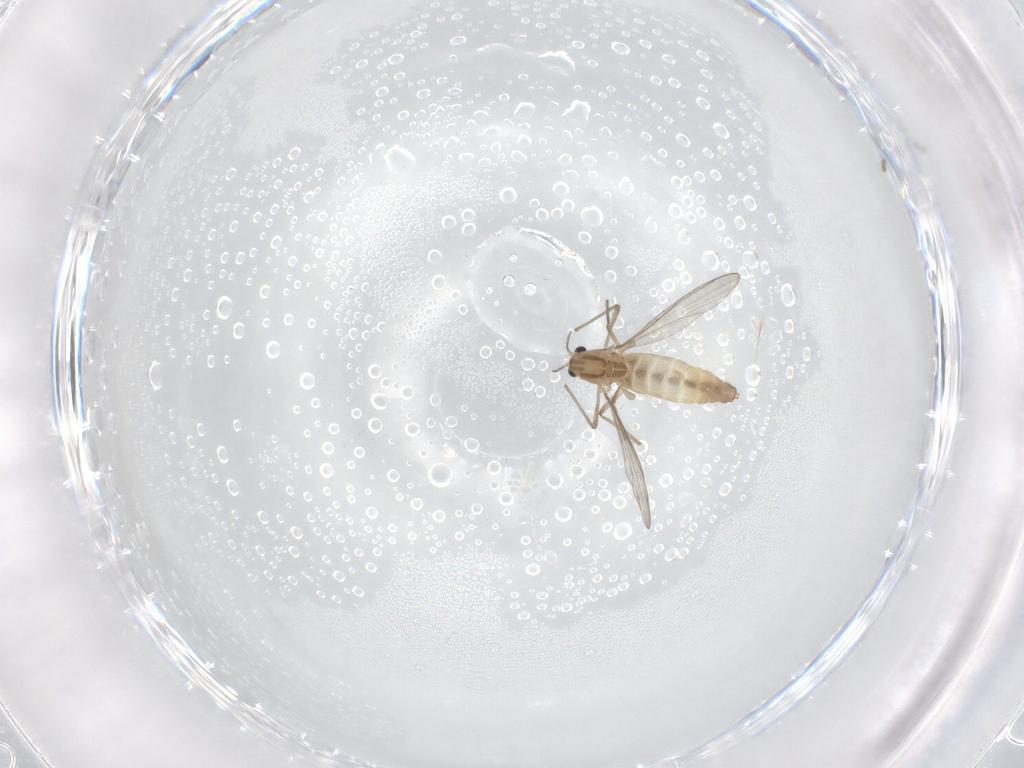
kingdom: Animalia
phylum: Arthropoda
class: Insecta
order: Diptera
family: Chironomidae
